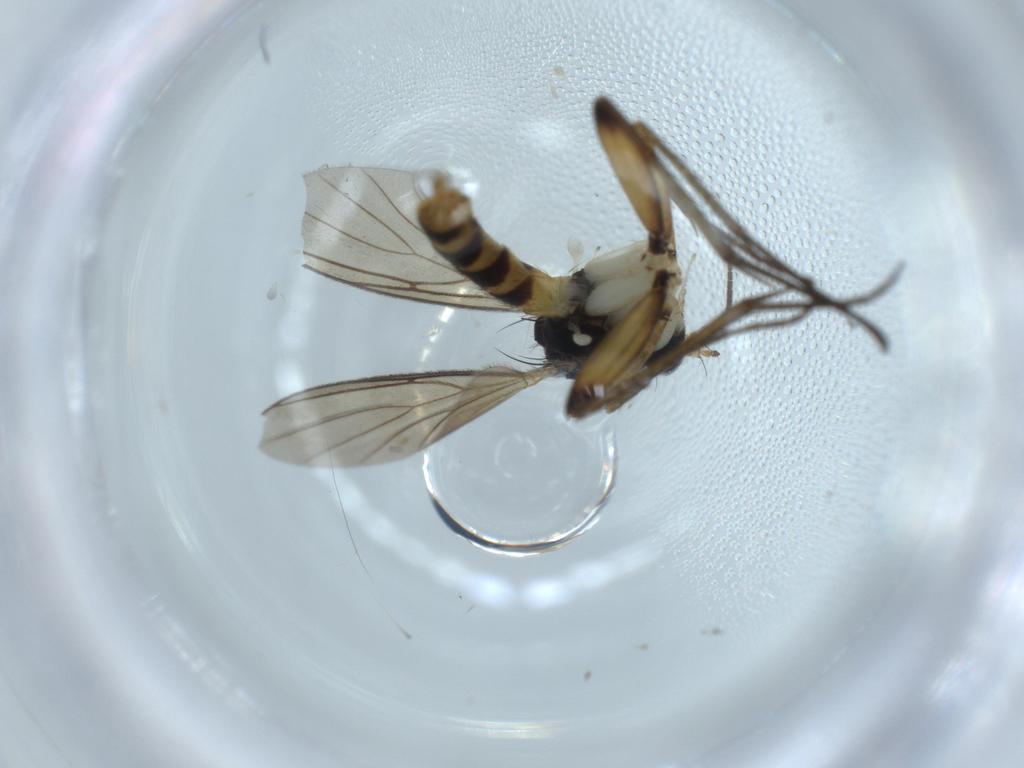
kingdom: Animalia
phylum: Arthropoda
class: Insecta
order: Diptera
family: Mycetophilidae
